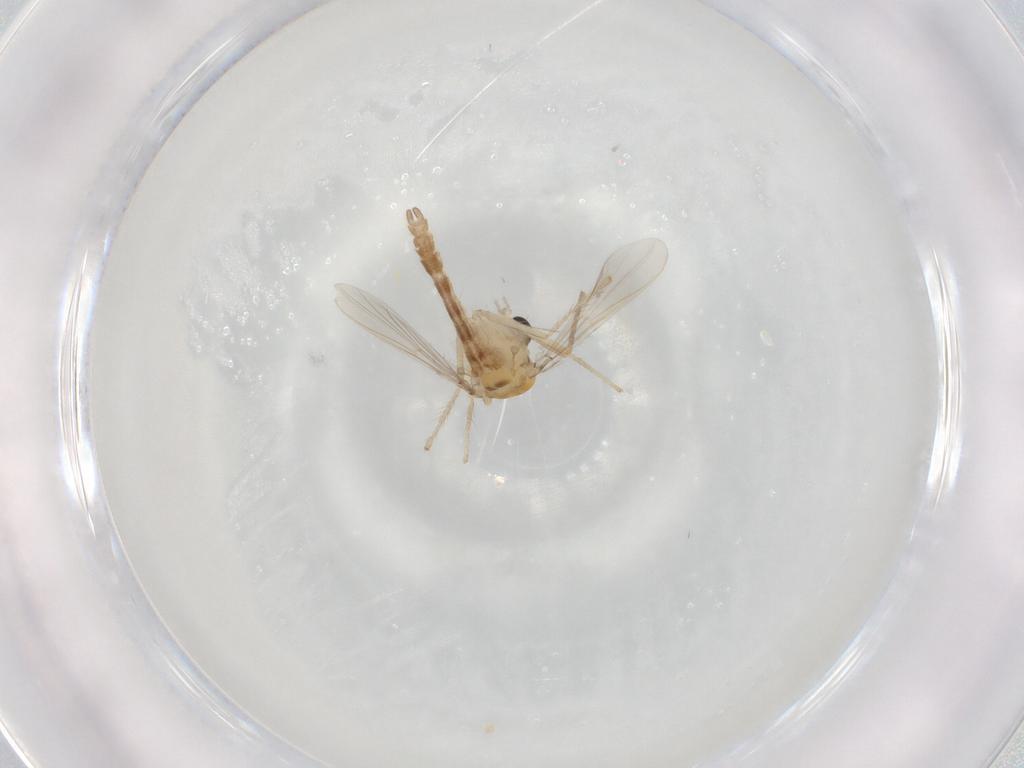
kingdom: Animalia
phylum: Arthropoda
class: Insecta
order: Diptera
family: Chironomidae
